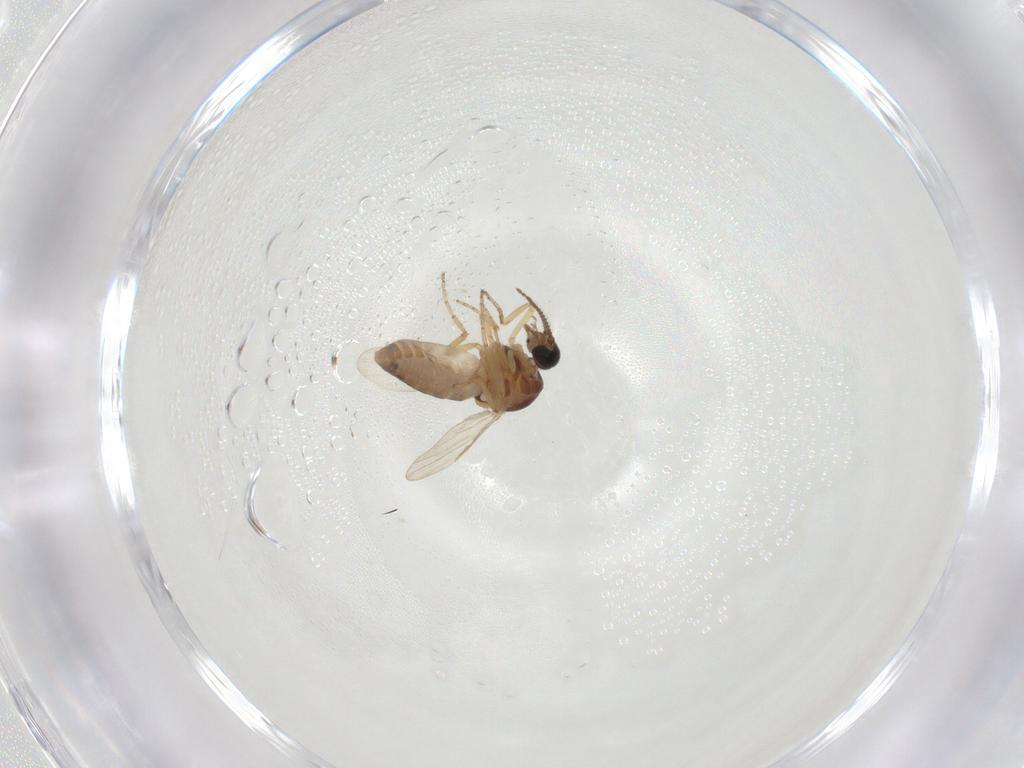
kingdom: Animalia
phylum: Arthropoda
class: Insecta
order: Diptera
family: Ceratopogonidae
